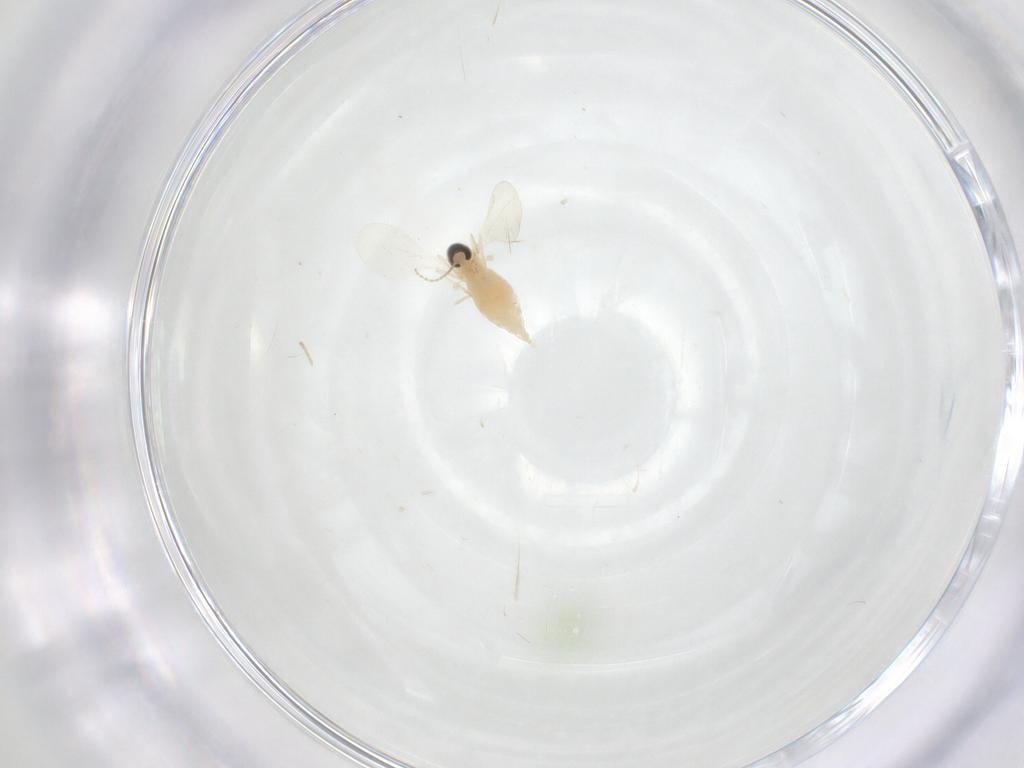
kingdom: Animalia
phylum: Arthropoda
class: Insecta
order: Diptera
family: Cecidomyiidae
